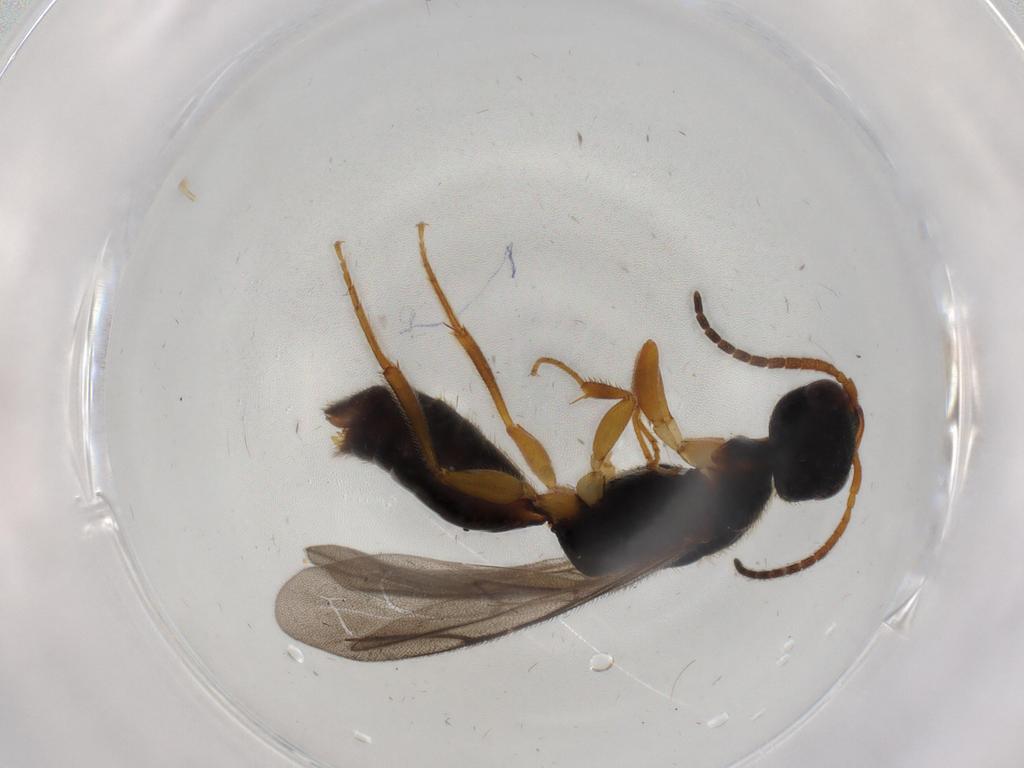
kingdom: Animalia
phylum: Arthropoda
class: Insecta
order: Hymenoptera
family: Bethylidae
